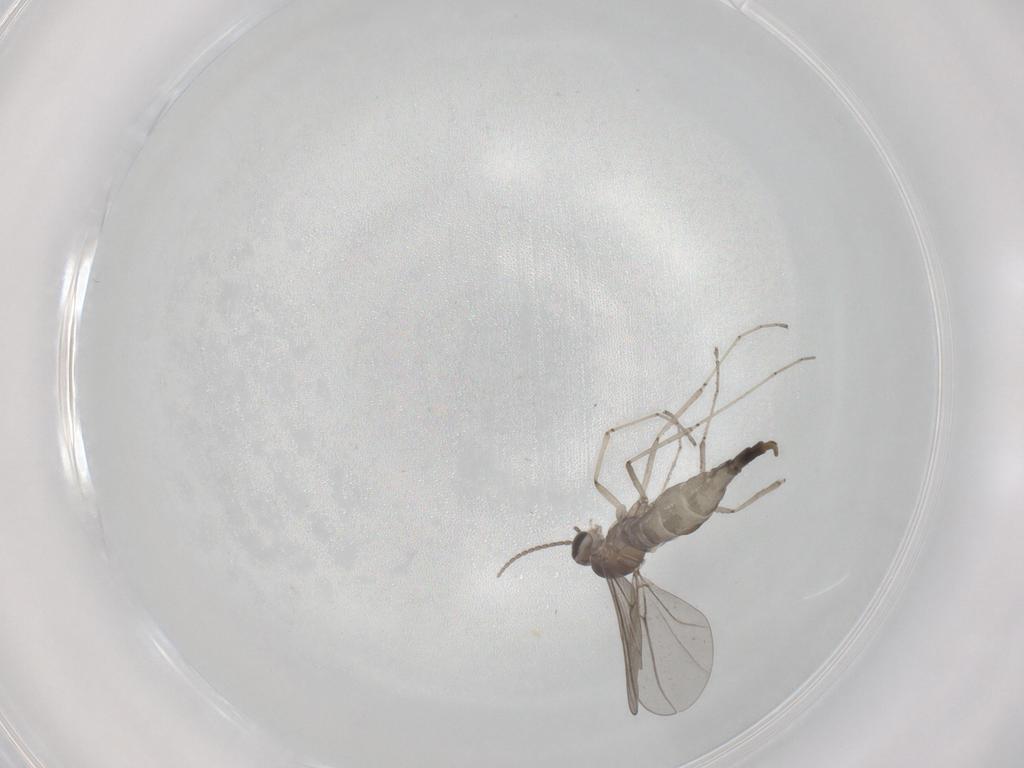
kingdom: Animalia
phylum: Arthropoda
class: Insecta
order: Diptera
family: Cecidomyiidae
